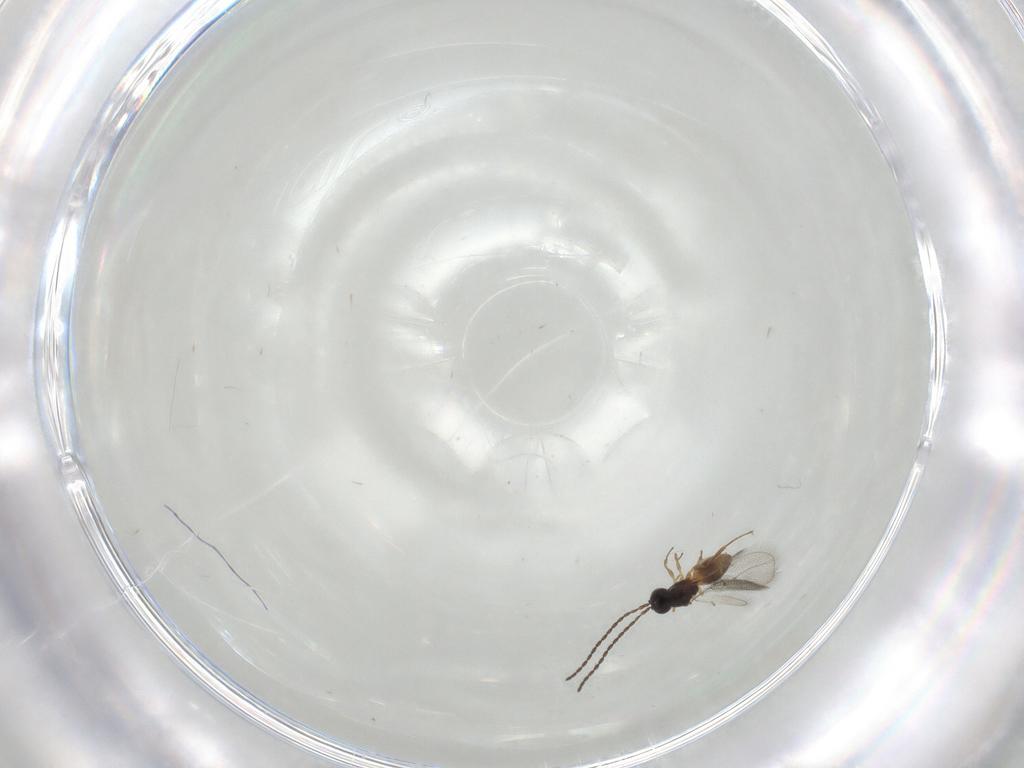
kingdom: Animalia
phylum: Arthropoda
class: Insecta
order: Hymenoptera
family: Figitidae
